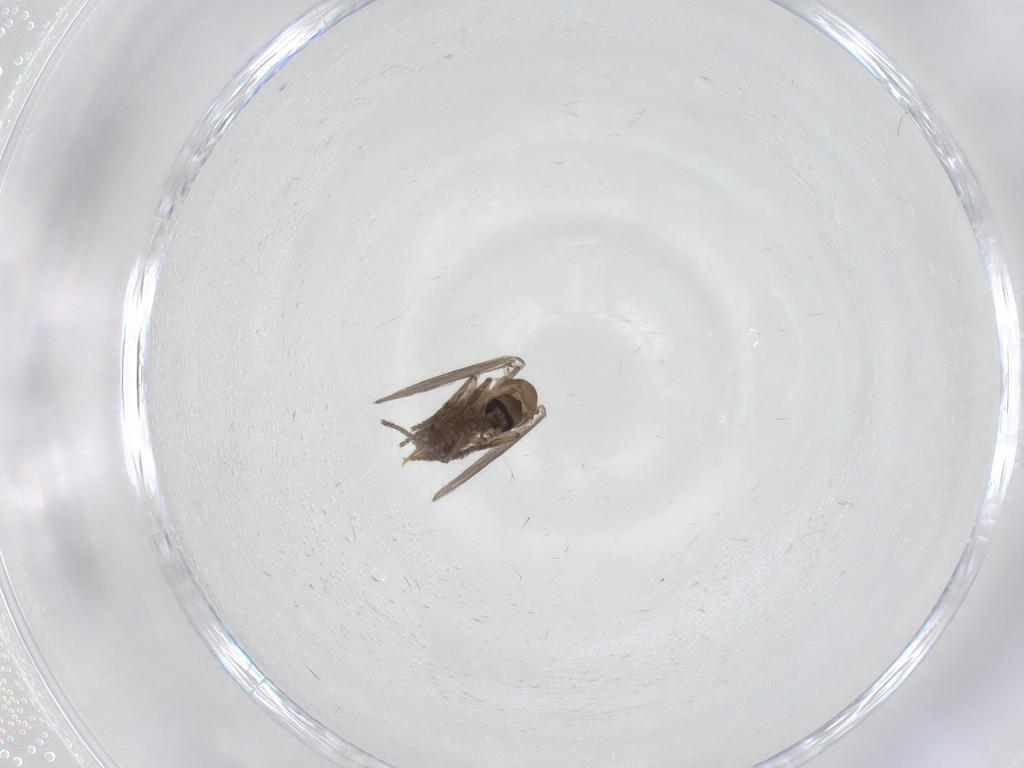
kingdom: Animalia
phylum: Arthropoda
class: Insecta
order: Diptera
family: Psychodidae
